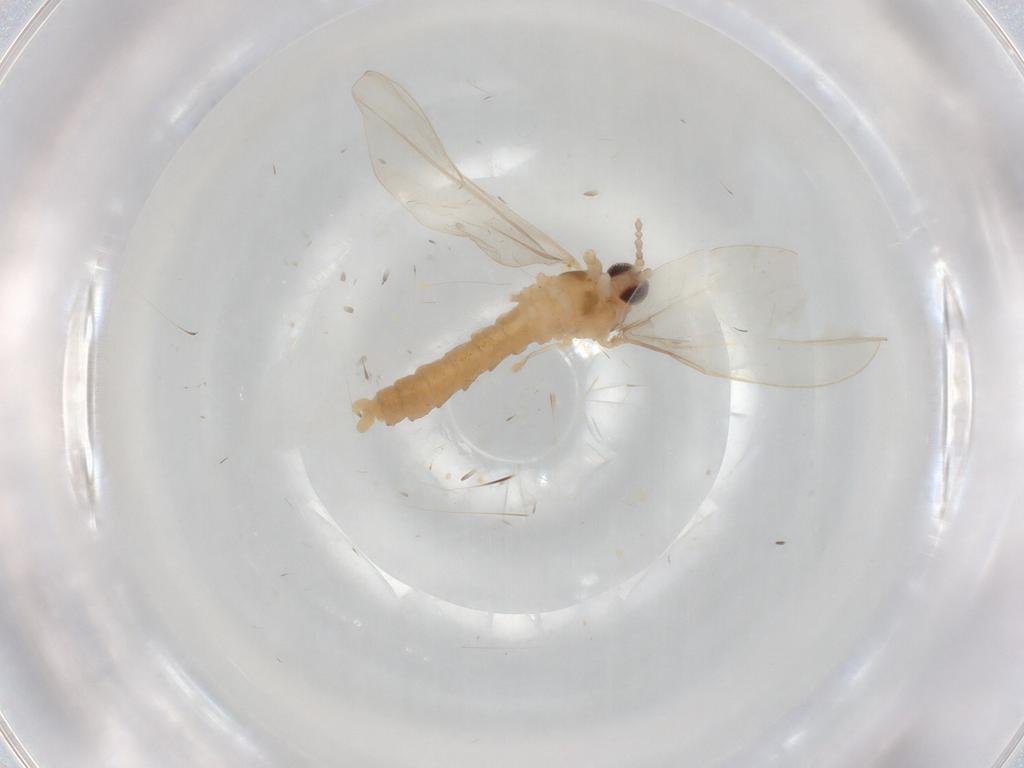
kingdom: Animalia
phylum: Arthropoda
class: Insecta
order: Diptera
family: Cecidomyiidae
